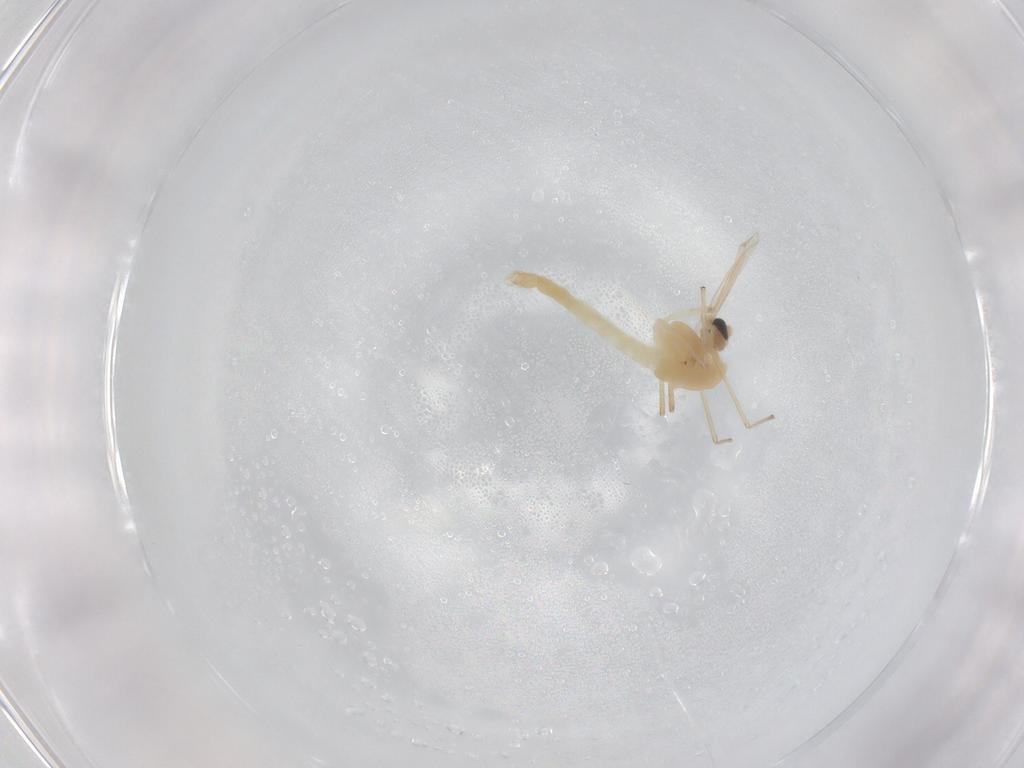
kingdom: Animalia
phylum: Arthropoda
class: Insecta
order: Diptera
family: Chironomidae
